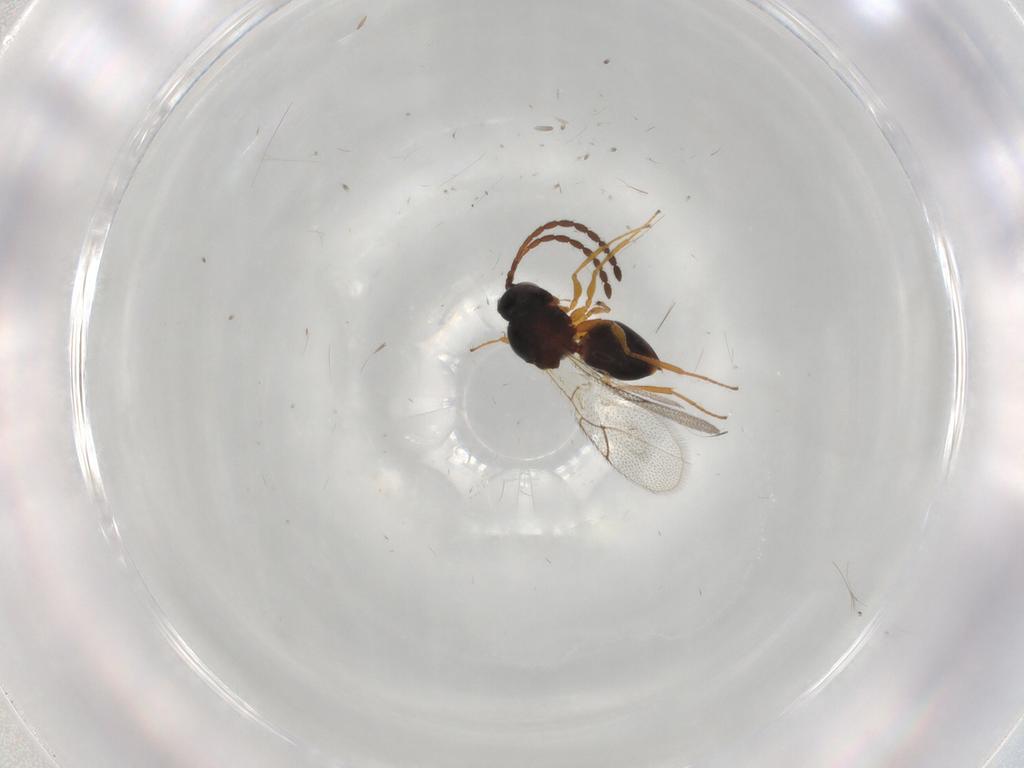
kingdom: Animalia
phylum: Arthropoda
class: Insecta
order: Hymenoptera
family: Figitidae
